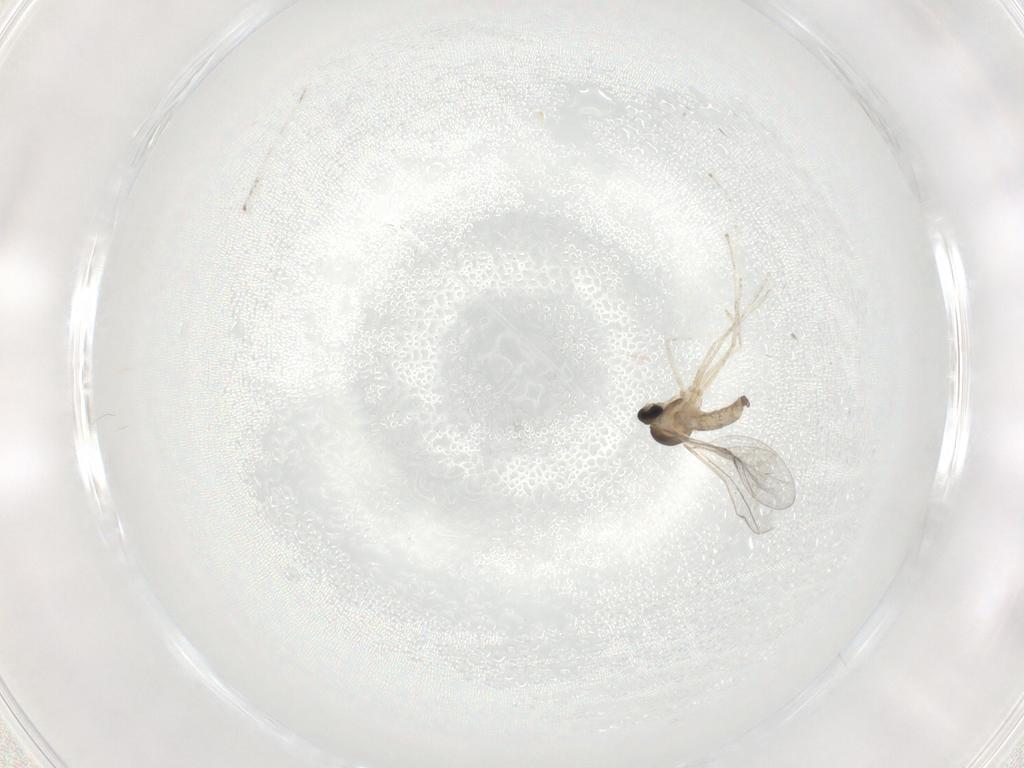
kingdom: Animalia
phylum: Arthropoda
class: Insecta
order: Diptera
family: Cecidomyiidae
